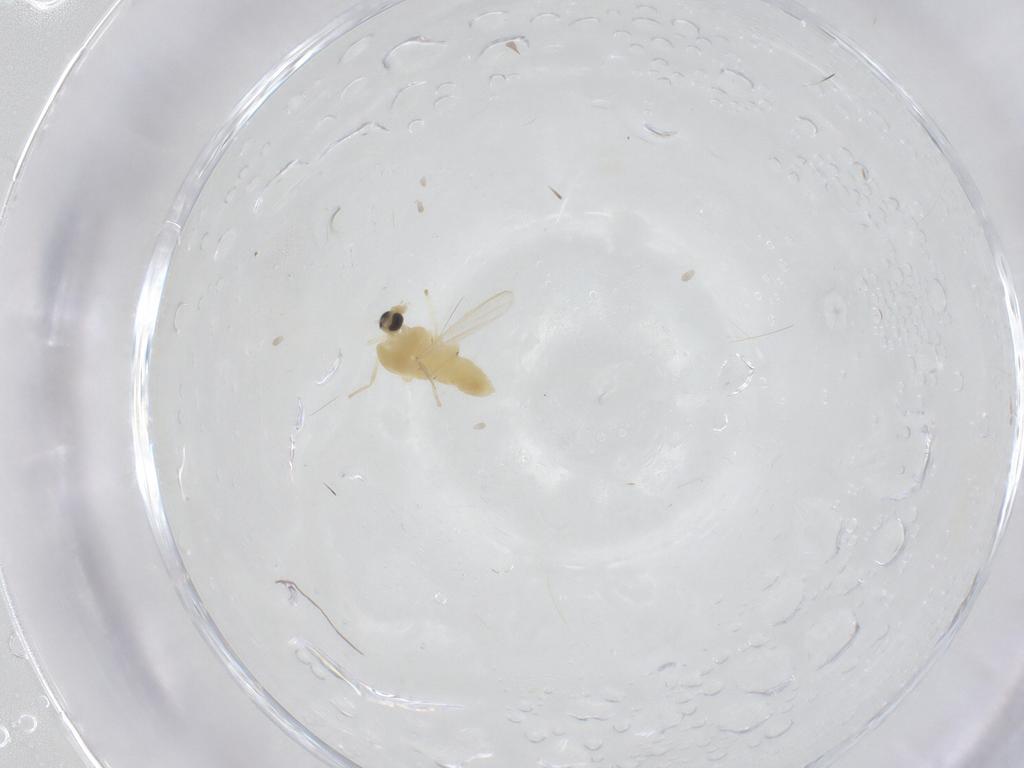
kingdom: Animalia
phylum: Arthropoda
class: Insecta
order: Diptera
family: Chironomidae
